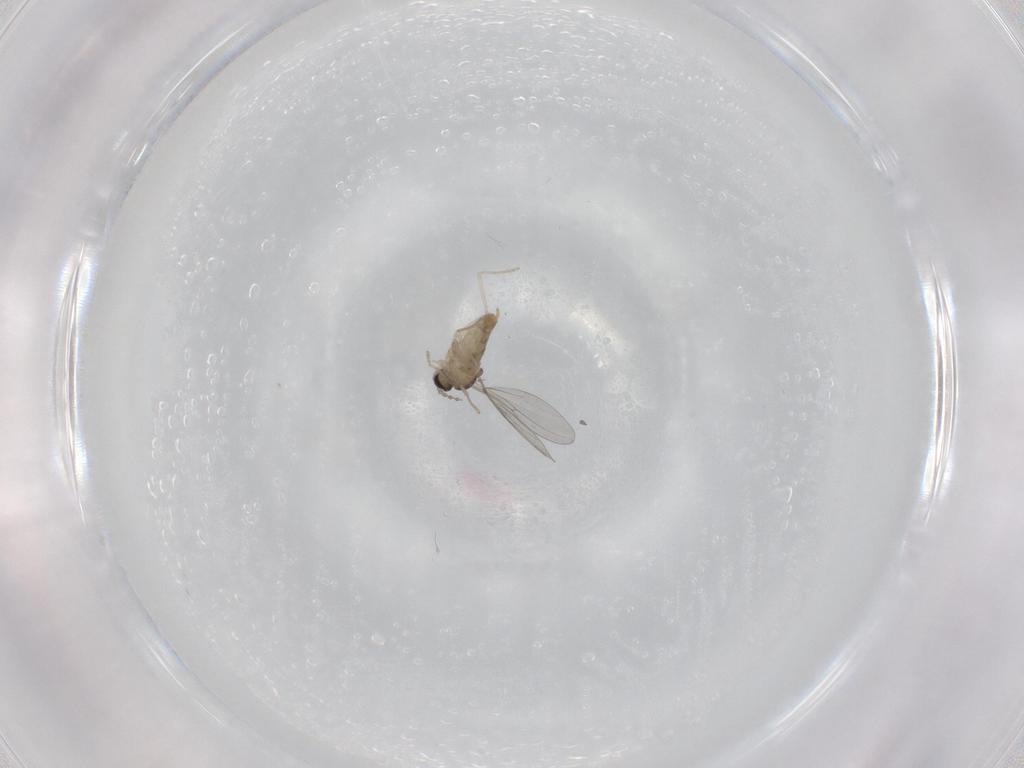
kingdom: Animalia
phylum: Arthropoda
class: Insecta
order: Diptera
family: Cecidomyiidae
